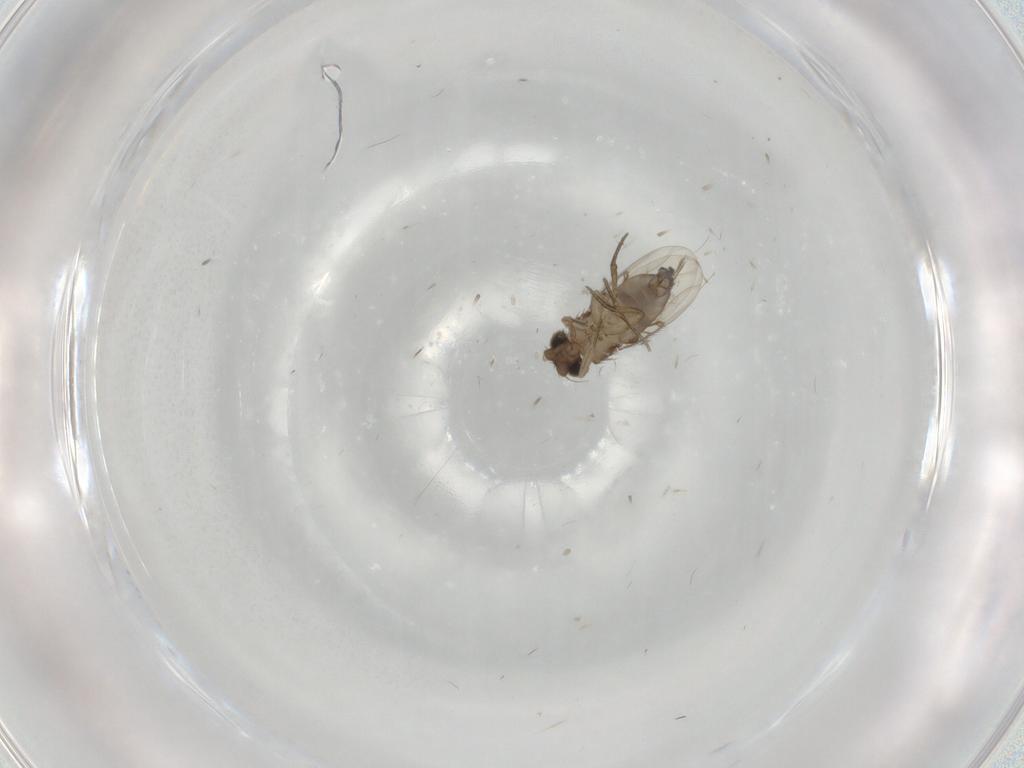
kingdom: Animalia
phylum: Arthropoda
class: Insecta
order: Diptera
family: Phoridae
